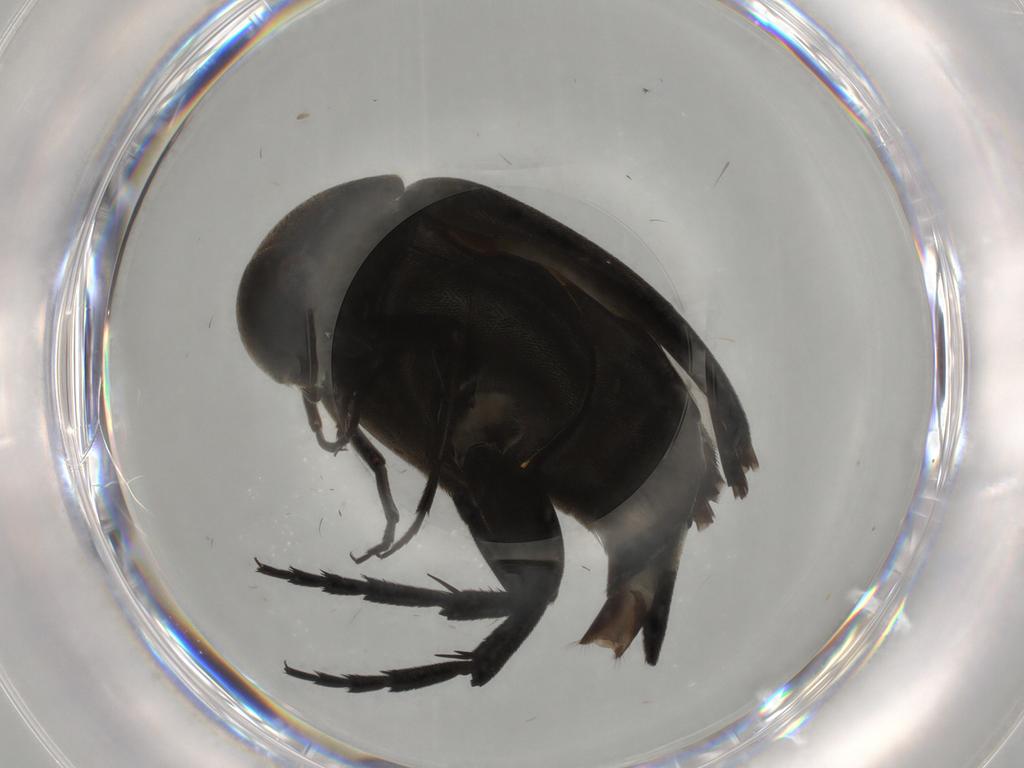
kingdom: Animalia
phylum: Arthropoda
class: Insecta
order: Coleoptera
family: Mordellidae
